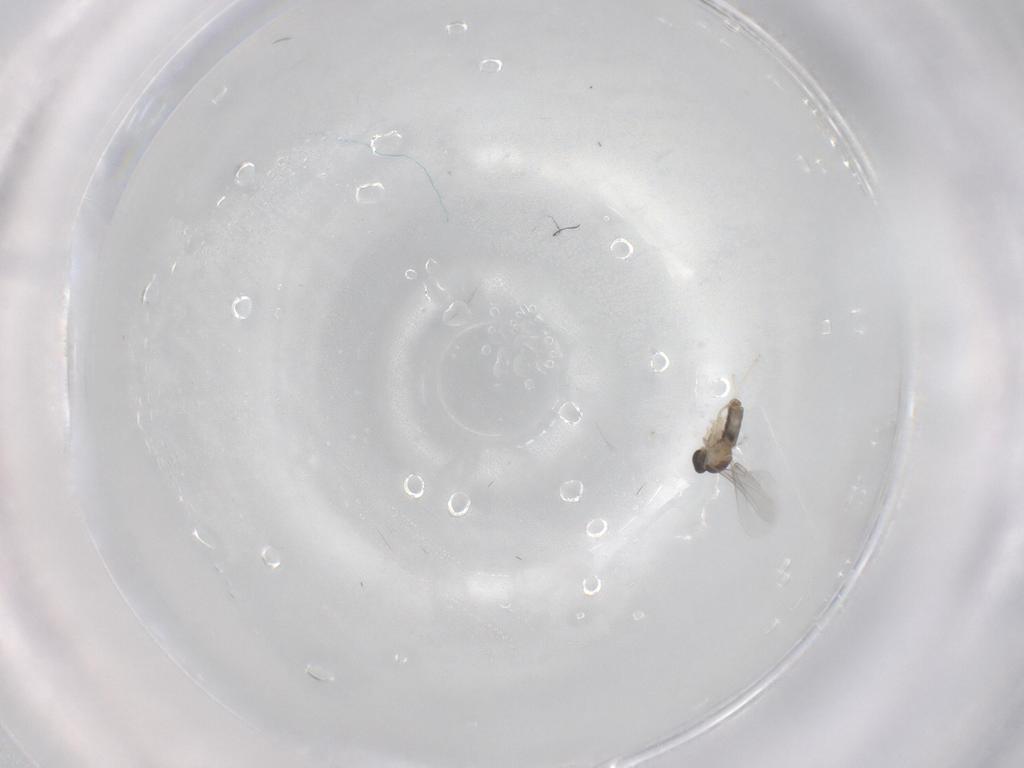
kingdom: Animalia
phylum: Arthropoda
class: Insecta
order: Diptera
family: Cecidomyiidae
